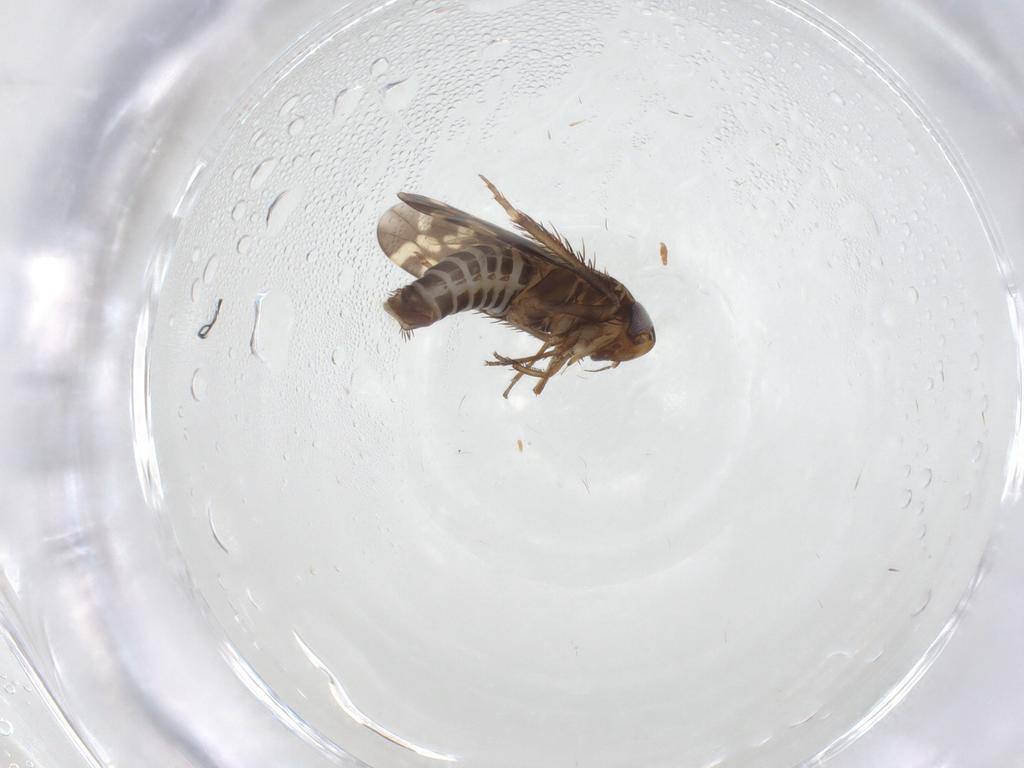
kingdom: Animalia
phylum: Arthropoda
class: Insecta
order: Hemiptera
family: Cicadellidae
